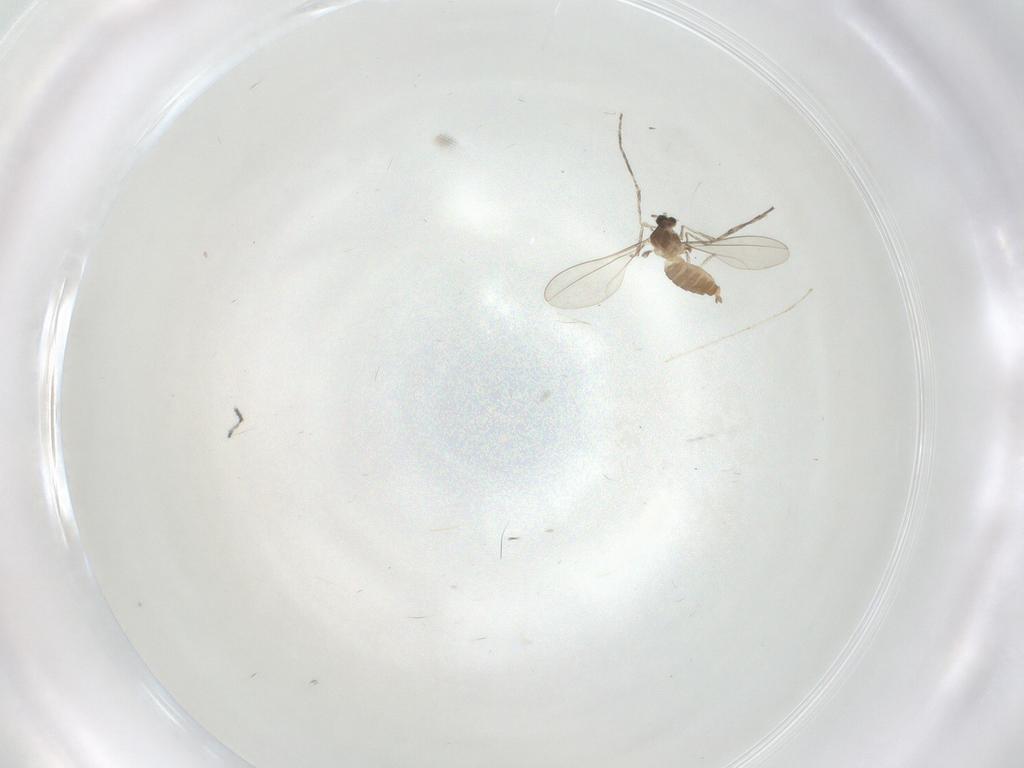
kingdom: Animalia
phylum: Arthropoda
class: Insecta
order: Diptera
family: Cecidomyiidae
